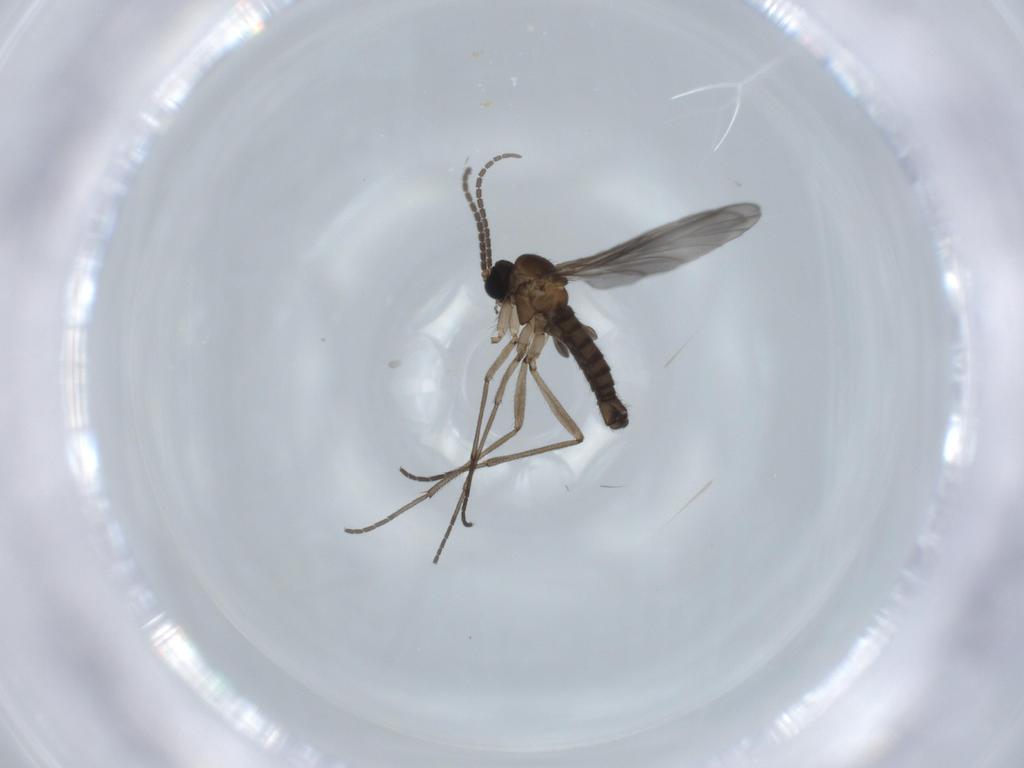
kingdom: Animalia
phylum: Arthropoda
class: Insecta
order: Diptera
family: Sciaridae
